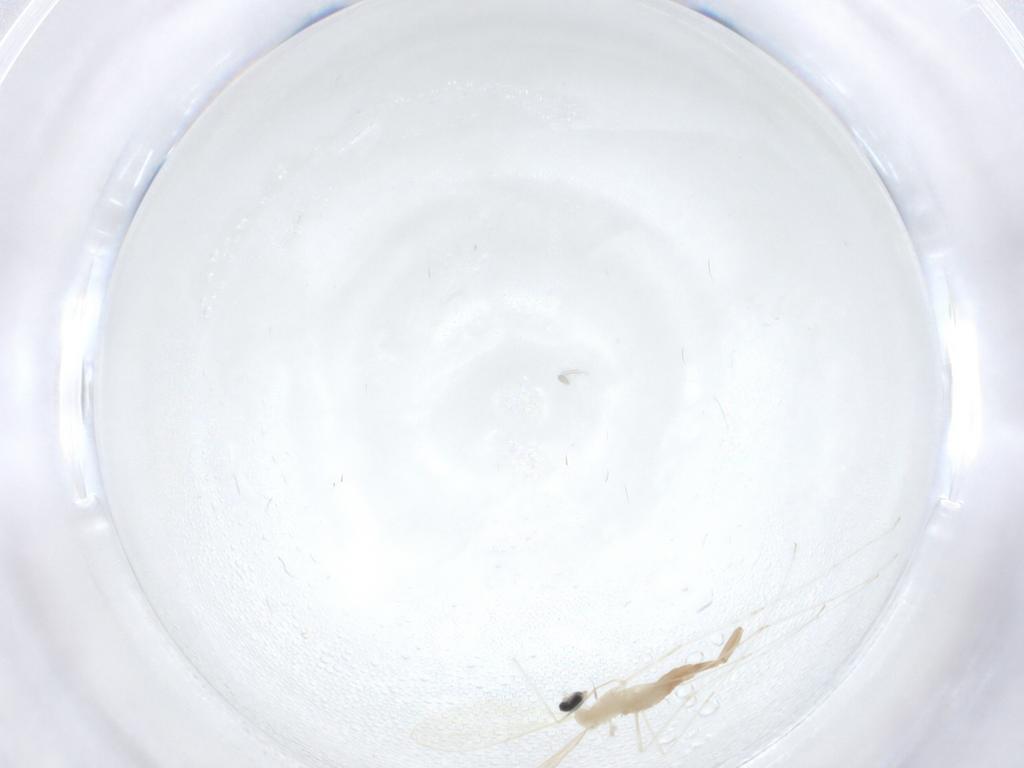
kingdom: Animalia
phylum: Arthropoda
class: Insecta
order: Diptera
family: Cecidomyiidae
